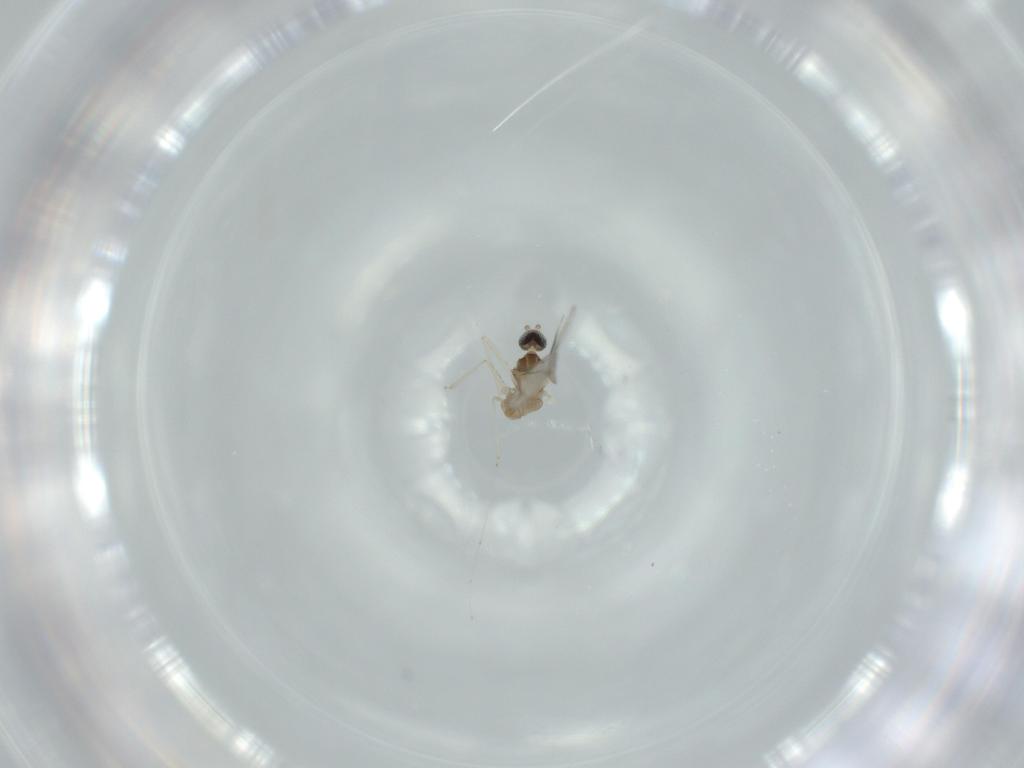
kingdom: Animalia
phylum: Arthropoda
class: Insecta
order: Diptera
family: Cecidomyiidae
